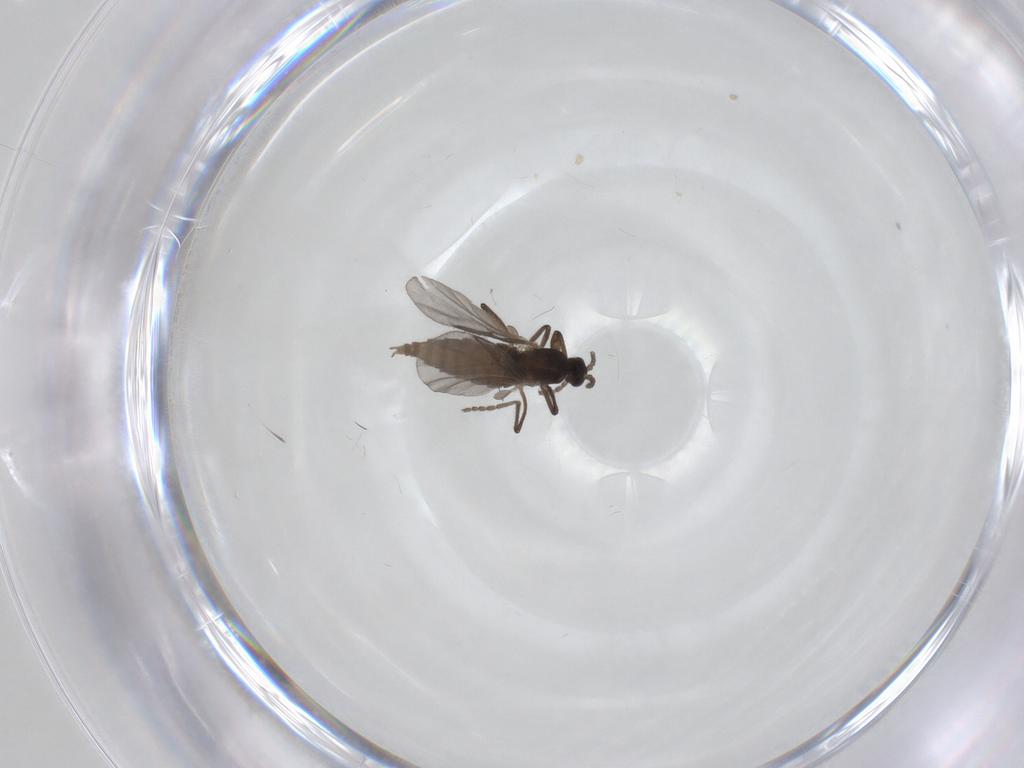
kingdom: Animalia
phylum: Arthropoda
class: Insecta
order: Diptera
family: Cecidomyiidae
